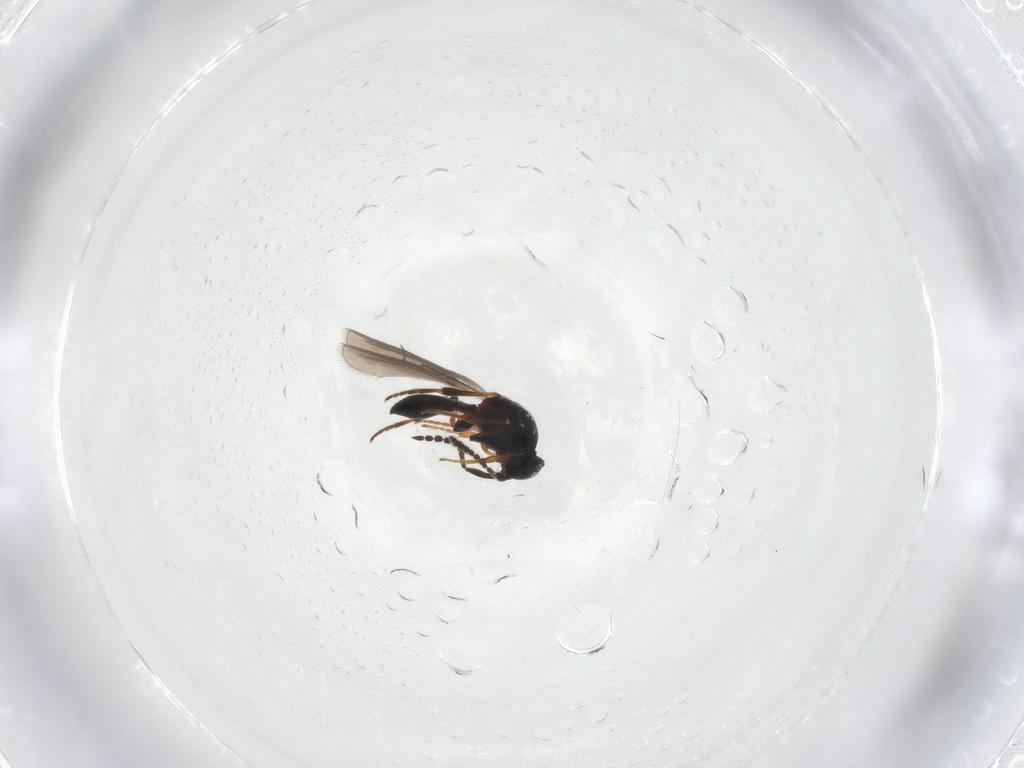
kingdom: Animalia
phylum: Arthropoda
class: Insecta
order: Hymenoptera
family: Platygastridae
